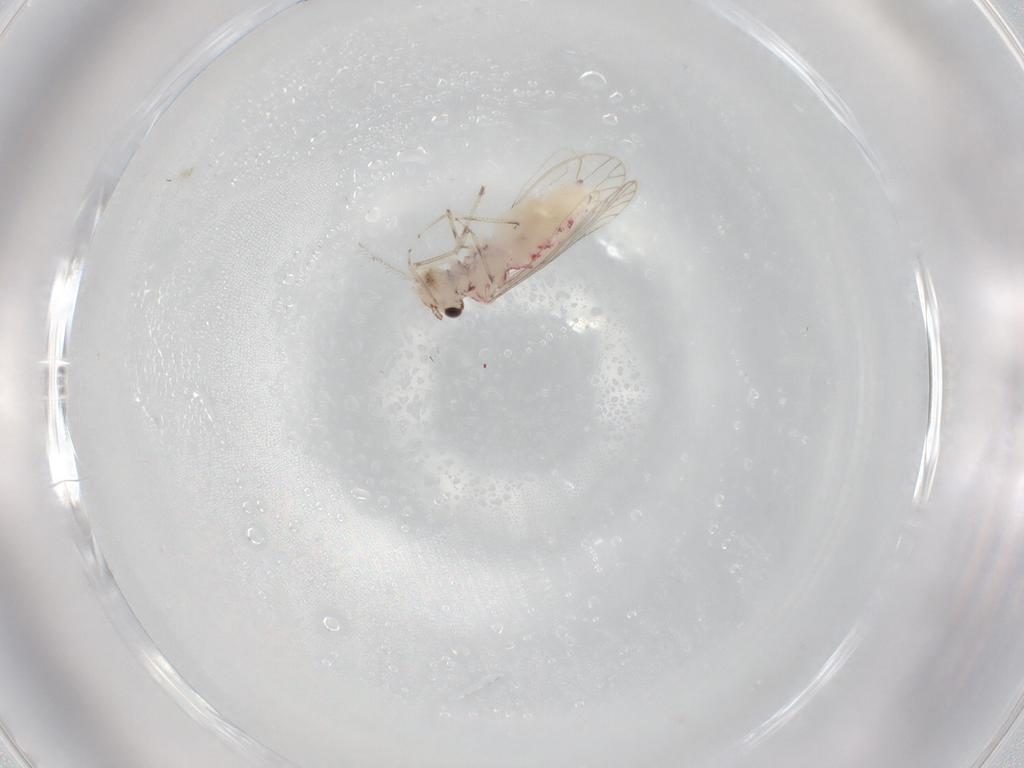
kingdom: Animalia
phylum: Arthropoda
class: Insecta
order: Psocodea
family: Caeciliusidae
